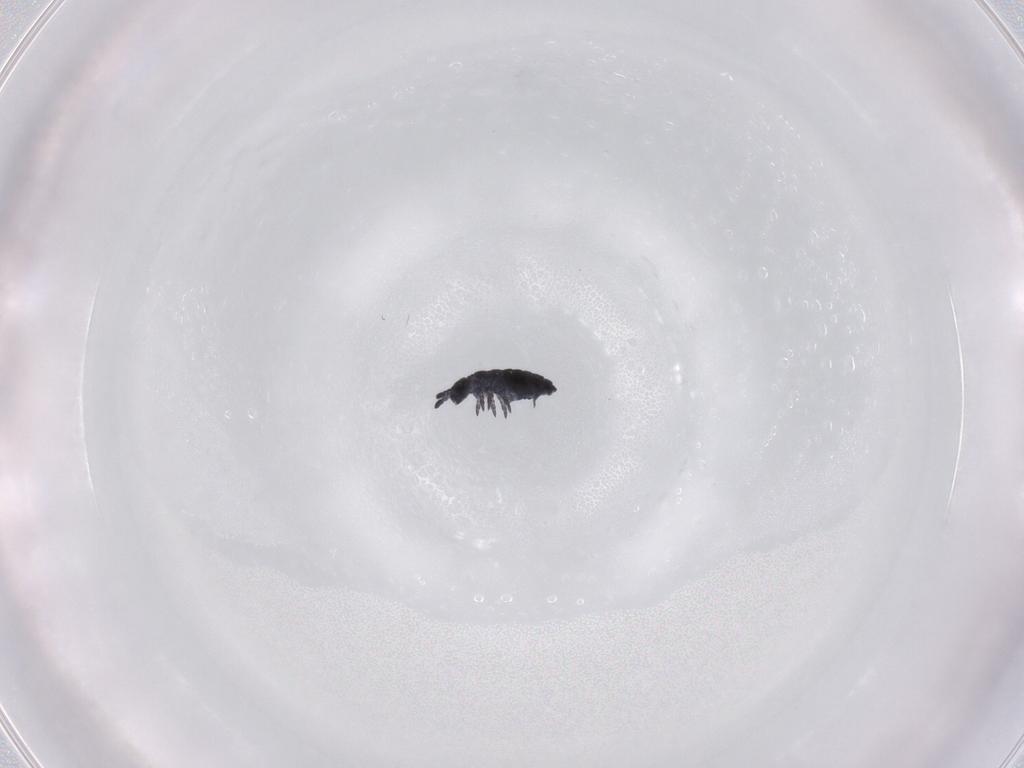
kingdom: Animalia
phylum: Arthropoda
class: Collembola
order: Poduromorpha
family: Hypogastruridae
